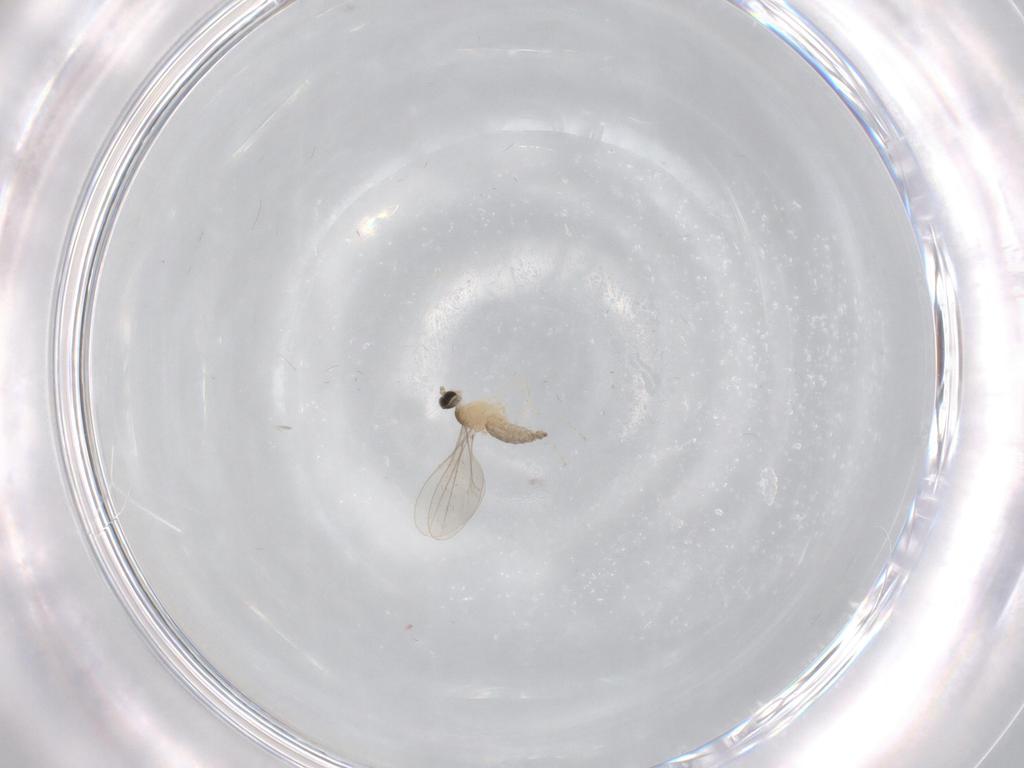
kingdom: Animalia
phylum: Arthropoda
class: Insecta
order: Diptera
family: Cecidomyiidae
